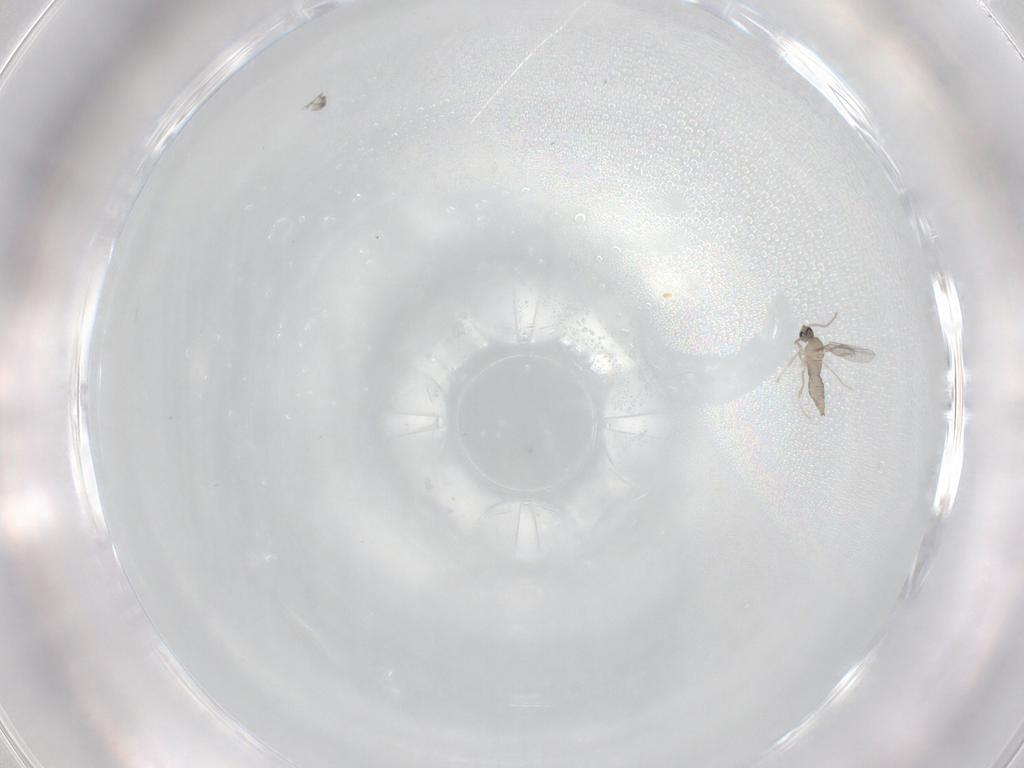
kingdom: Animalia
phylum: Arthropoda
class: Insecta
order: Diptera
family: Cecidomyiidae
